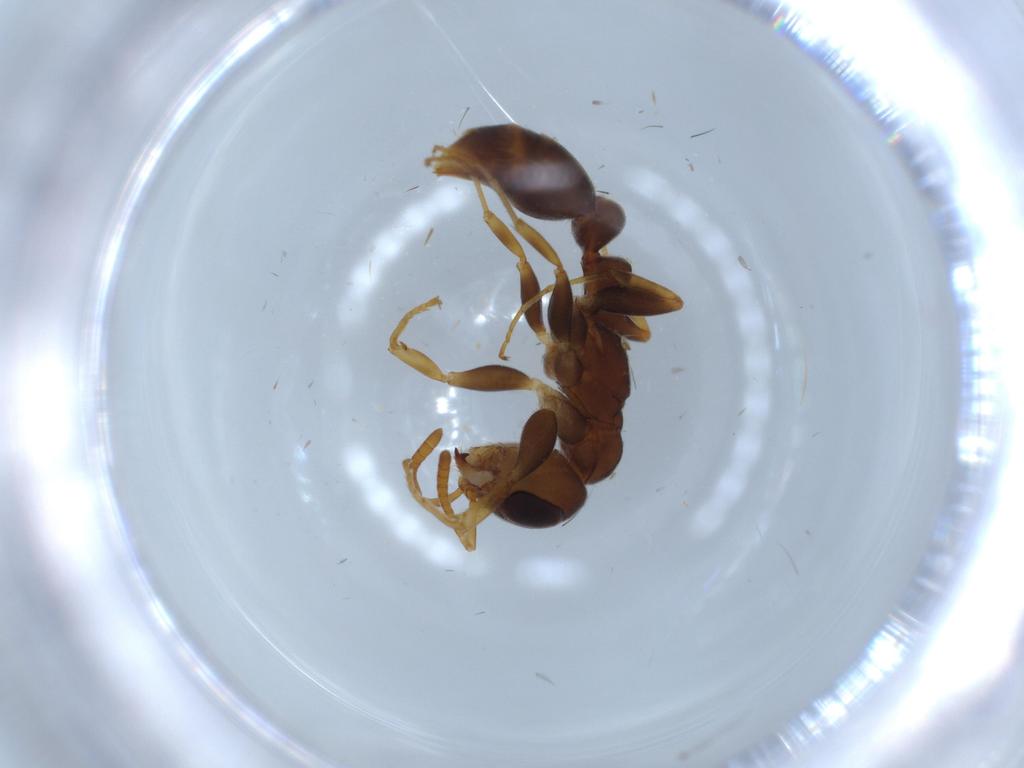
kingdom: Animalia
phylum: Arthropoda
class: Insecta
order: Hymenoptera
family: Formicidae
